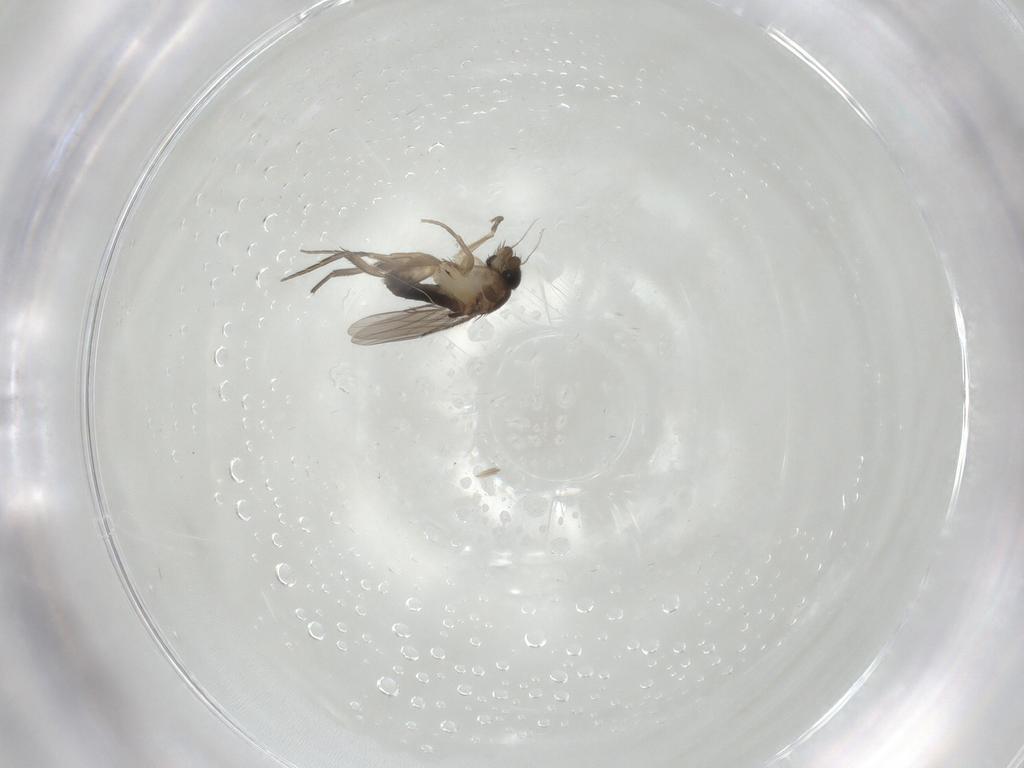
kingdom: Animalia
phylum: Arthropoda
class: Insecta
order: Diptera
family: Phoridae
